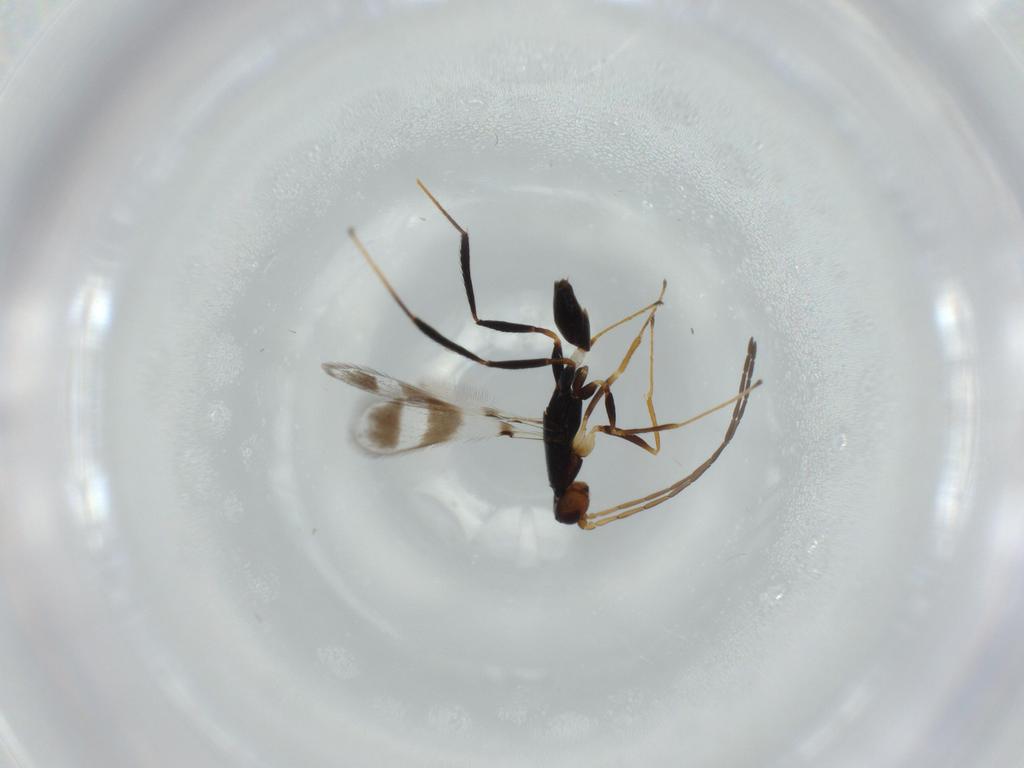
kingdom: Animalia
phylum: Arthropoda
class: Insecta
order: Hymenoptera
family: Mymaridae
